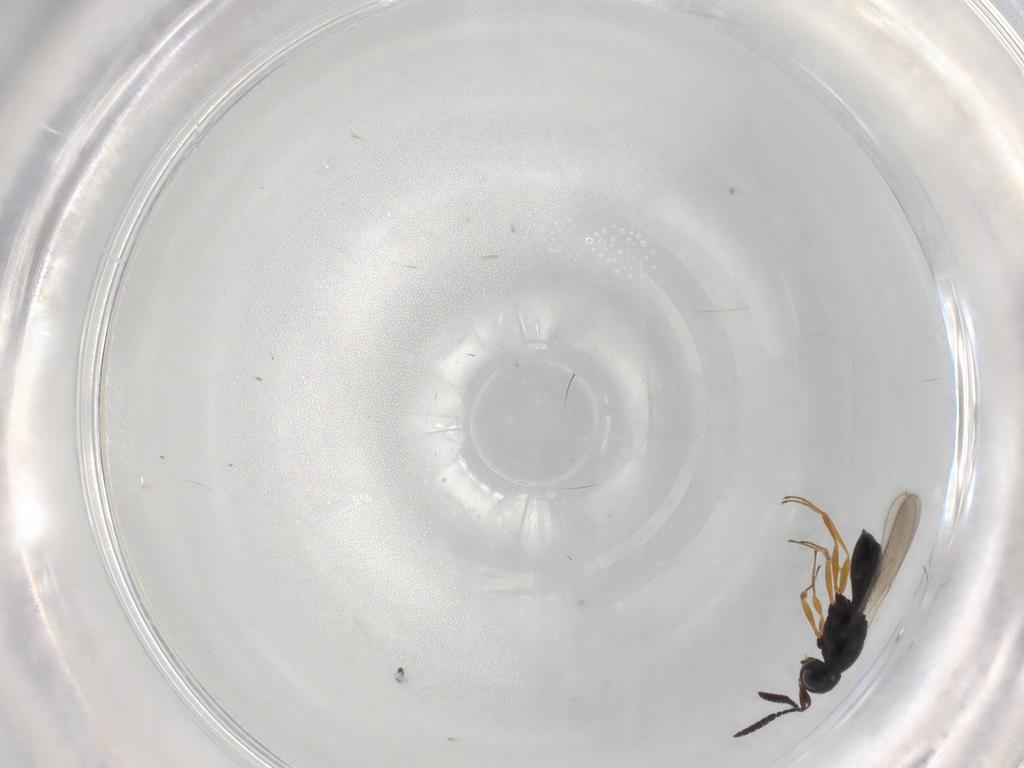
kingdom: Animalia
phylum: Arthropoda
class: Insecta
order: Hymenoptera
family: Scelionidae
